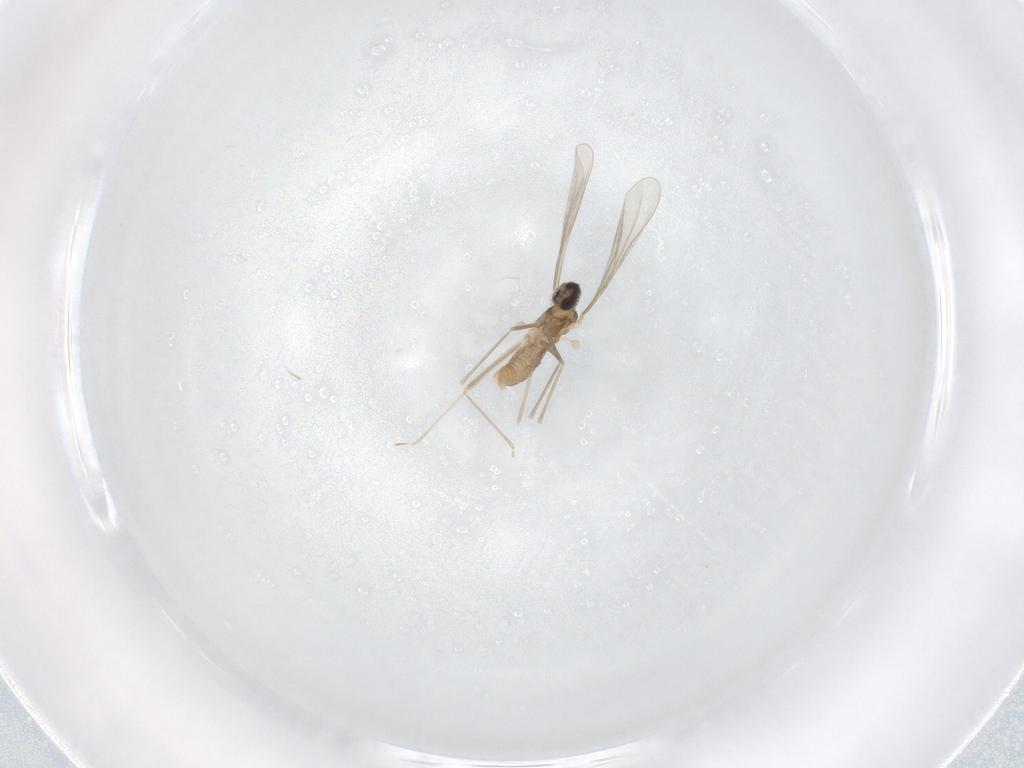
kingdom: Animalia
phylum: Arthropoda
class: Insecta
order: Diptera
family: Cecidomyiidae
